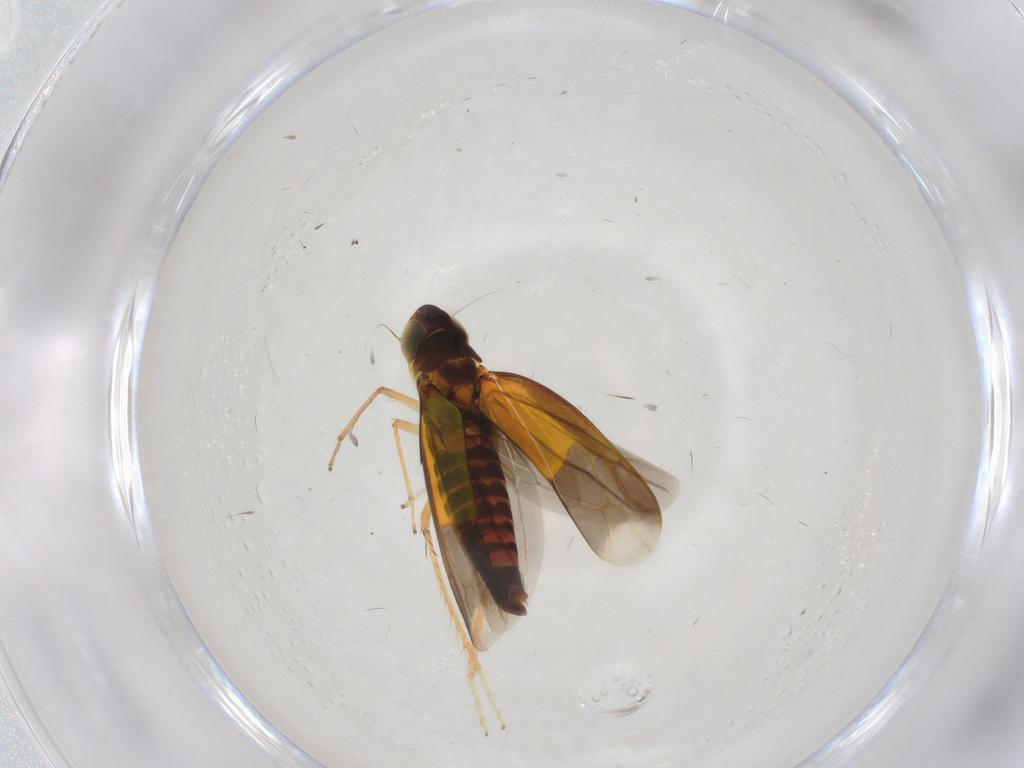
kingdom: Animalia
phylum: Arthropoda
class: Insecta
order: Hemiptera
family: Cicadellidae
